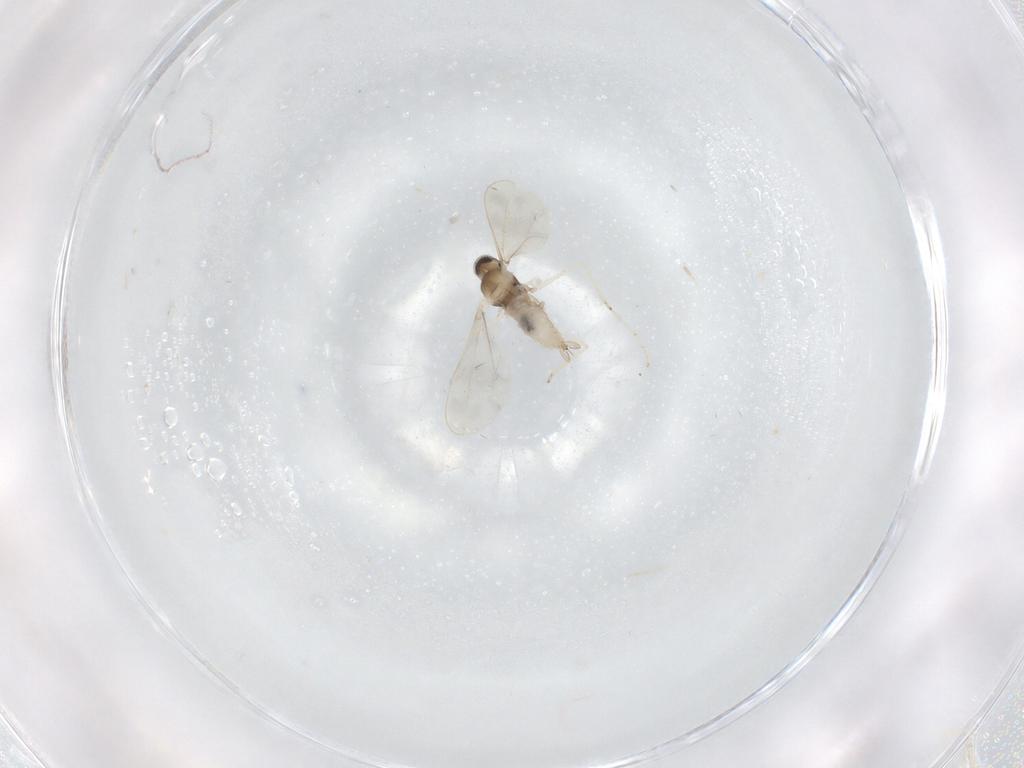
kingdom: Animalia
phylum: Arthropoda
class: Insecta
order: Diptera
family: Cecidomyiidae
